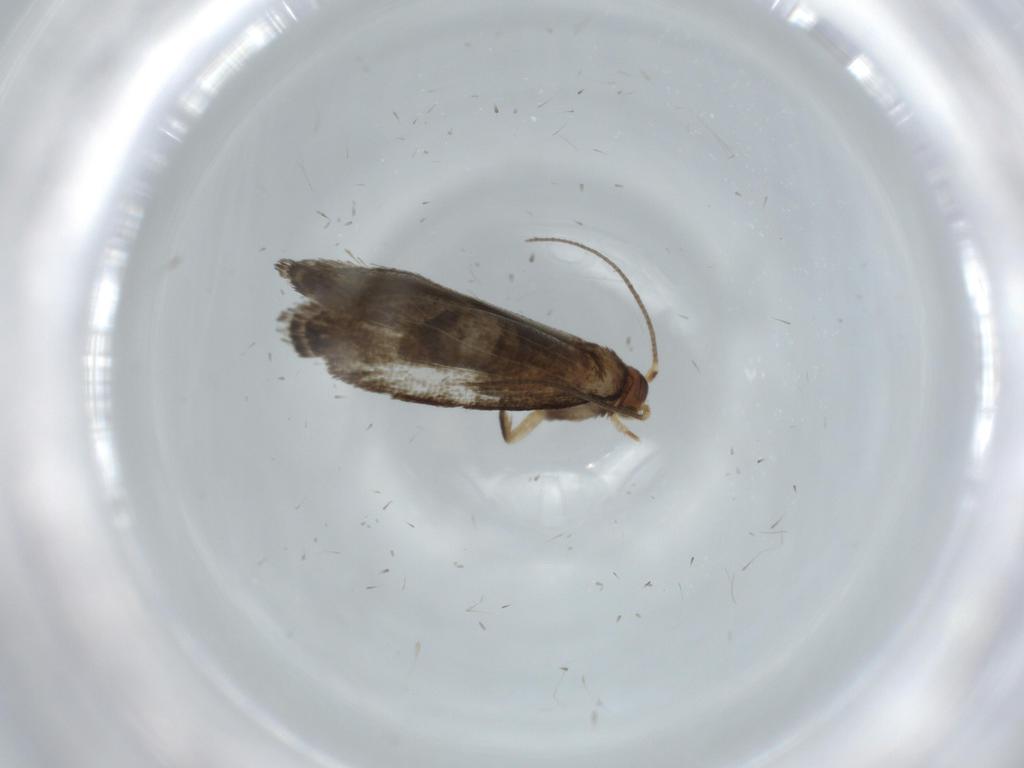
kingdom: Animalia
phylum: Arthropoda
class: Insecta
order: Lepidoptera
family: Tineidae
